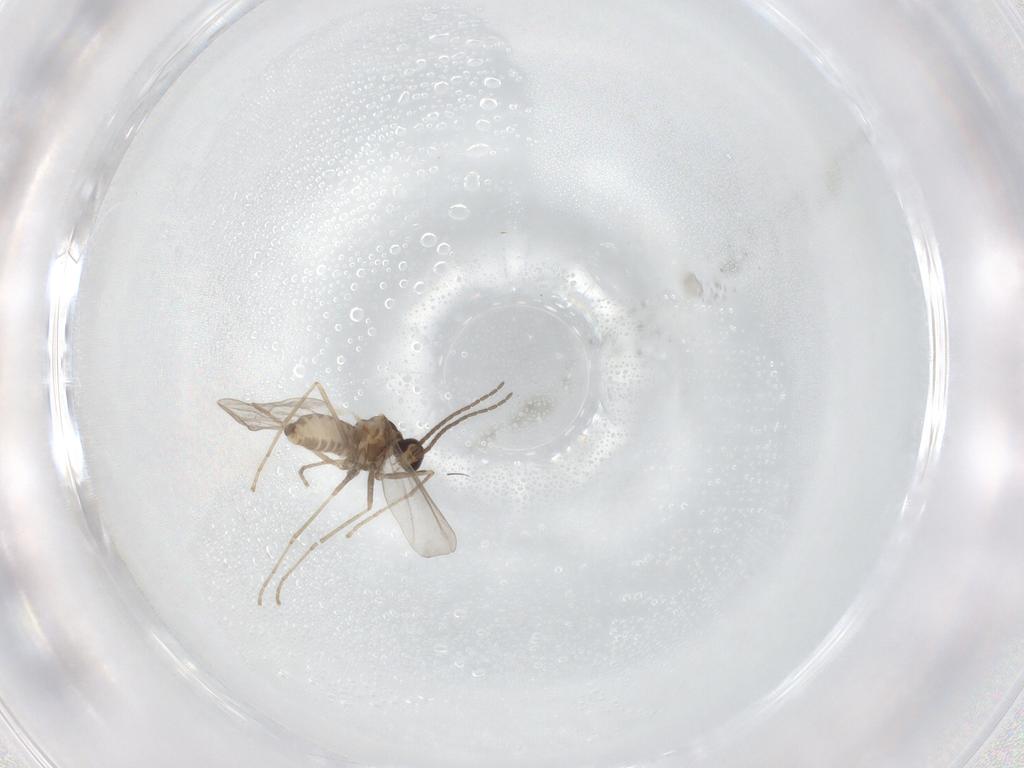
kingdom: Animalia
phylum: Arthropoda
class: Insecta
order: Diptera
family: Cecidomyiidae
